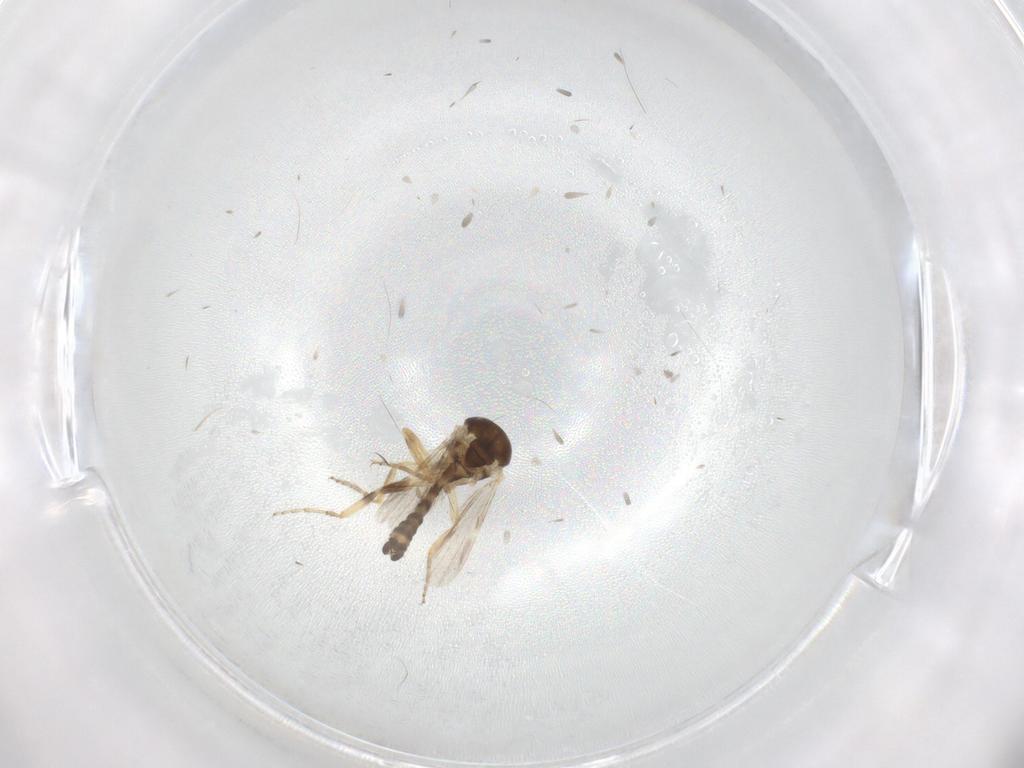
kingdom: Animalia
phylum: Arthropoda
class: Insecta
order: Diptera
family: Ceratopogonidae
